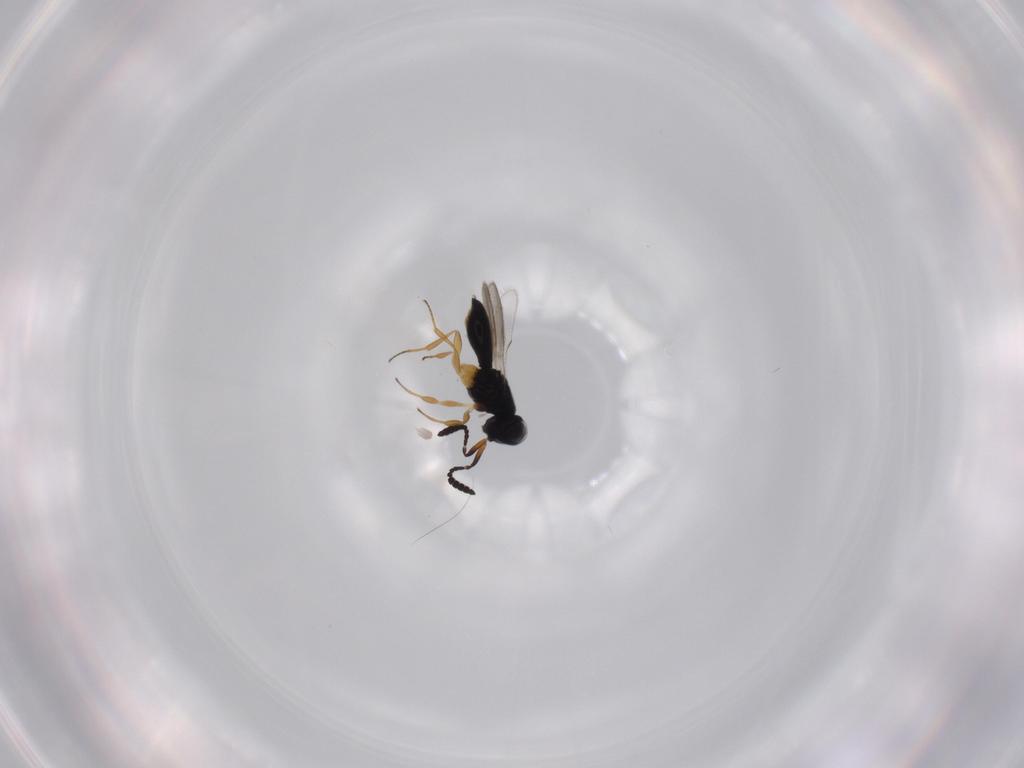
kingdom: Animalia
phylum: Arthropoda
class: Insecta
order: Hymenoptera
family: Scelionidae
